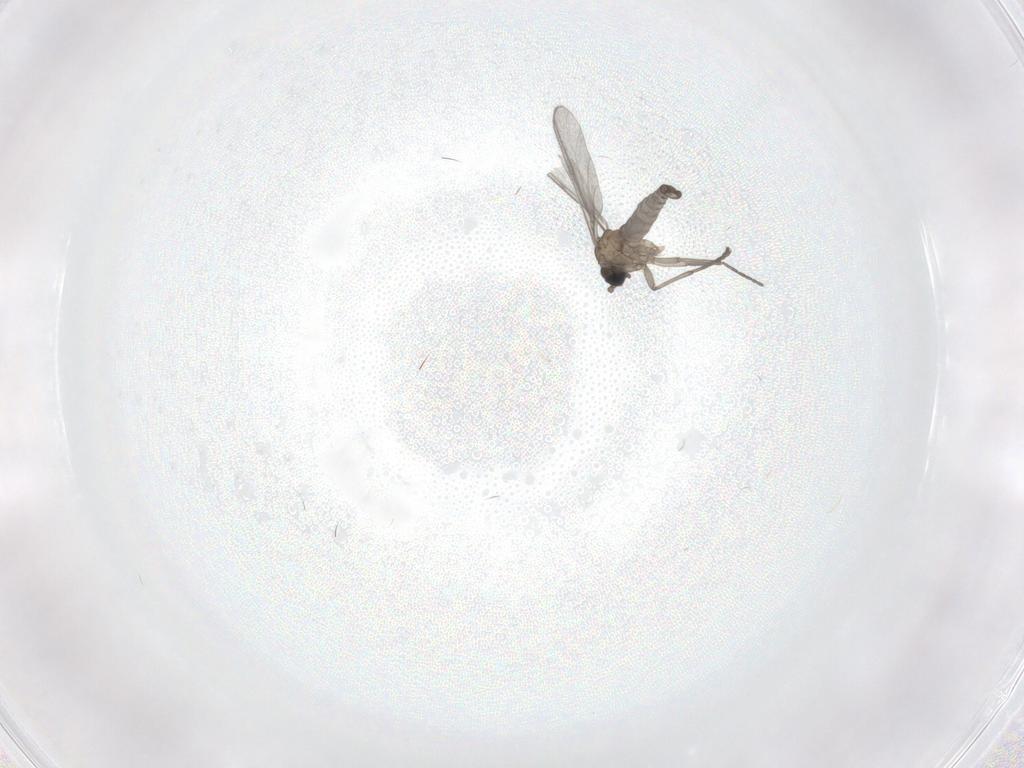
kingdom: Animalia
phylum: Arthropoda
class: Insecta
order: Diptera
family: Sciaridae
